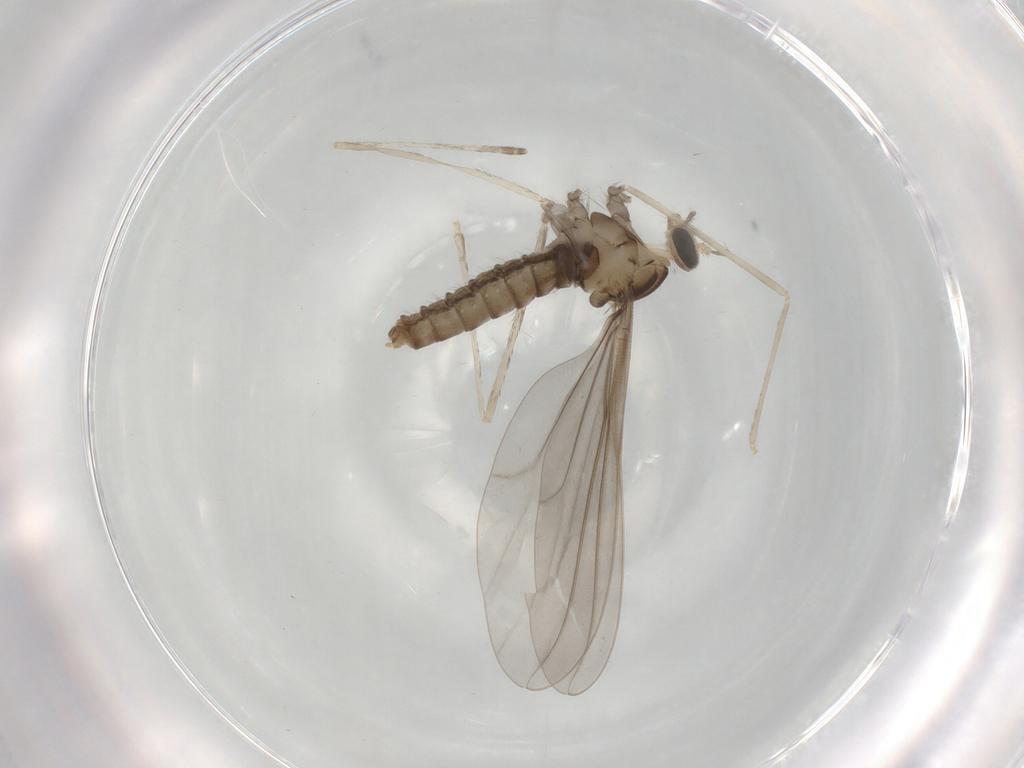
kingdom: Animalia
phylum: Arthropoda
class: Insecta
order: Diptera
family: Cecidomyiidae
